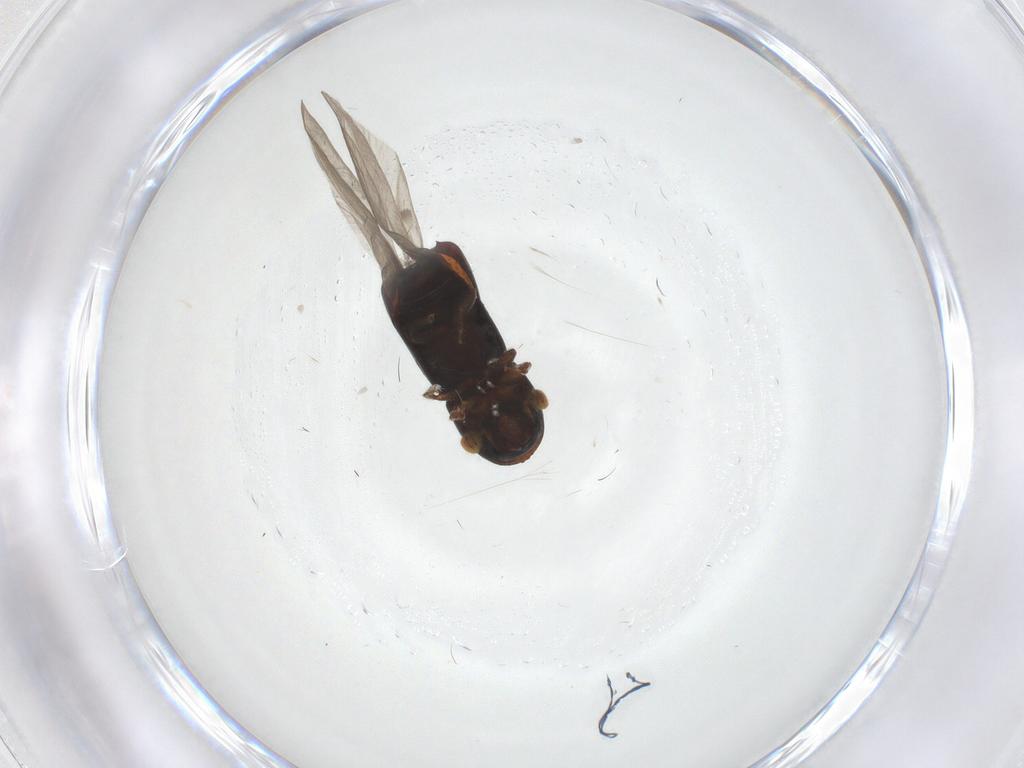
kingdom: Animalia
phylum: Arthropoda
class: Insecta
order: Coleoptera
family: Curculionidae
